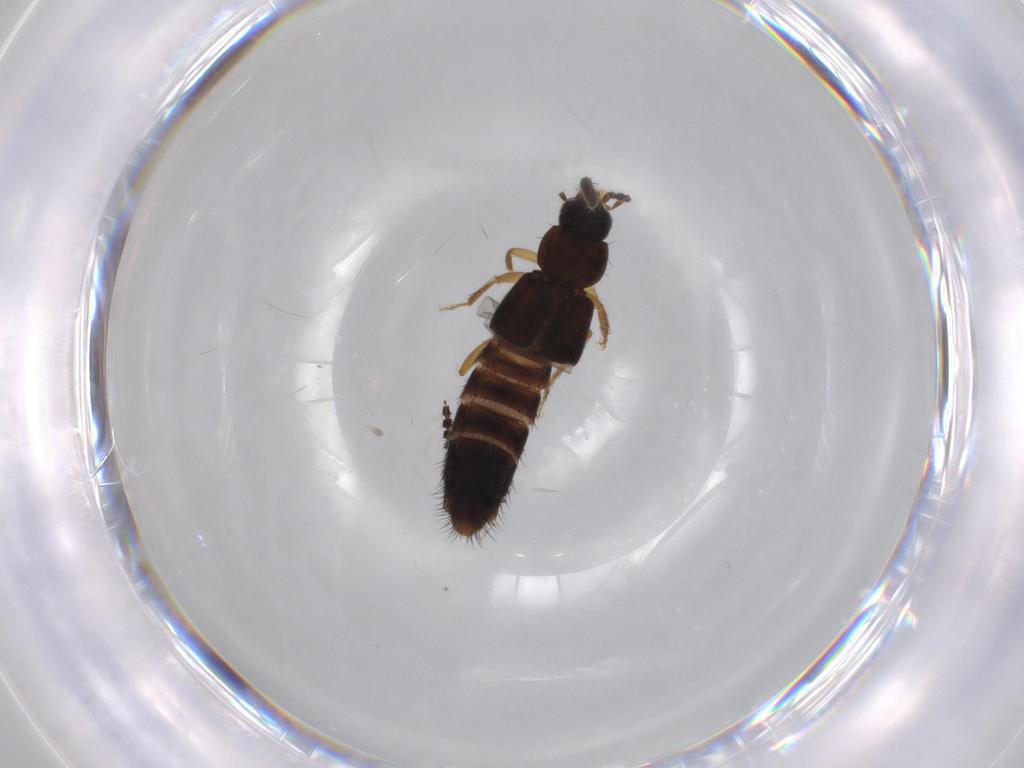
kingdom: Animalia
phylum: Arthropoda
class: Insecta
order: Coleoptera
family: Staphylinidae
